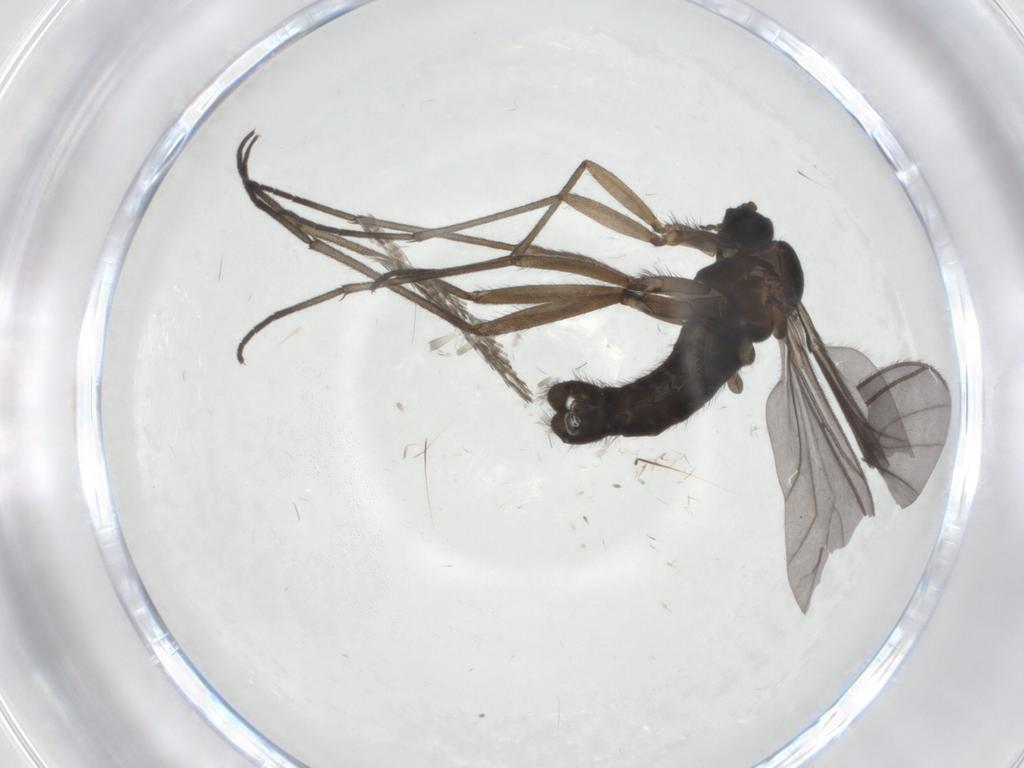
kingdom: Animalia
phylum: Arthropoda
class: Insecta
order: Diptera
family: Sciaridae
